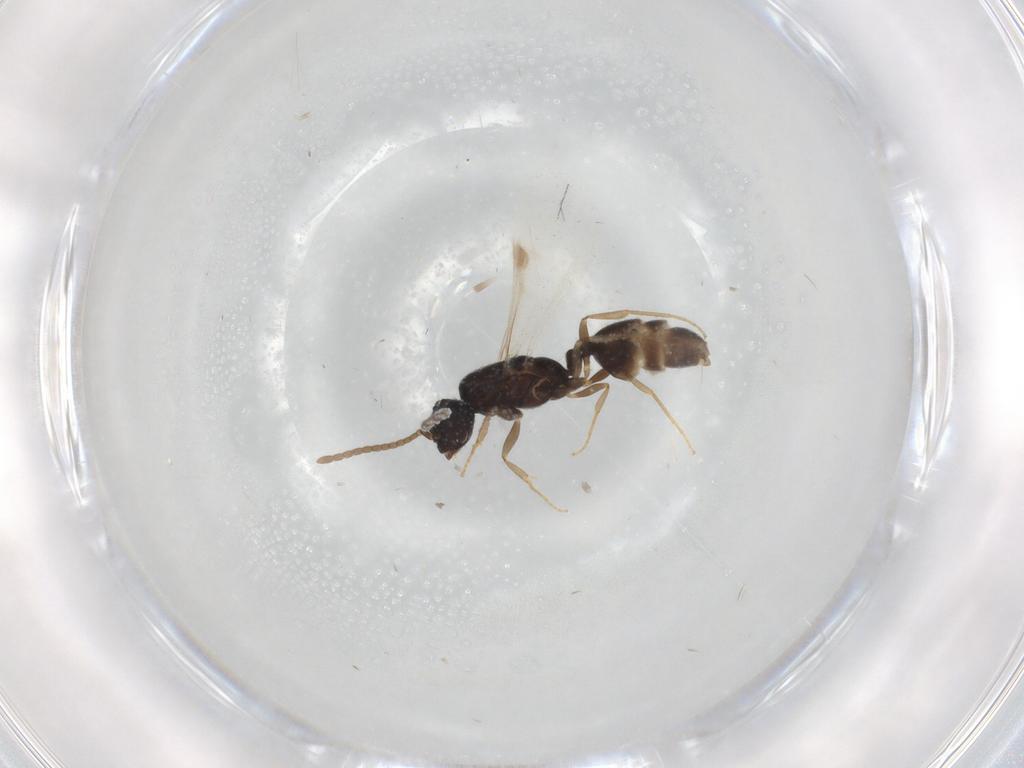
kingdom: Animalia
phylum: Arthropoda
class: Insecta
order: Hymenoptera
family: Formicidae
